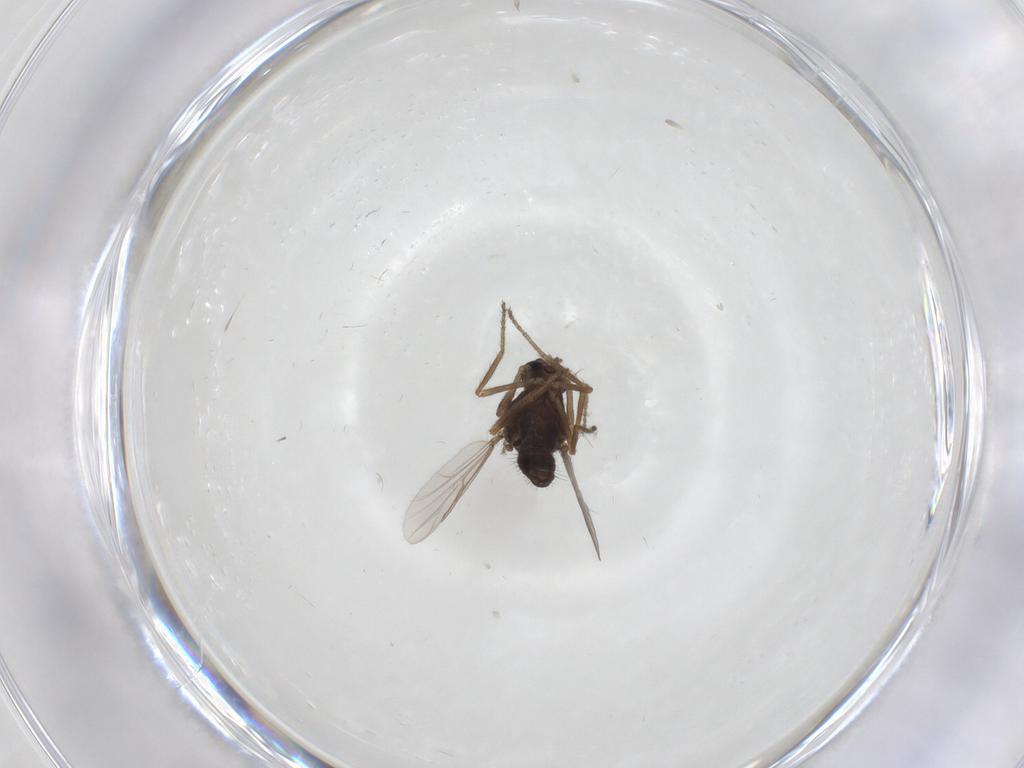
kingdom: Animalia
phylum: Arthropoda
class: Insecta
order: Diptera
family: Ceratopogonidae
